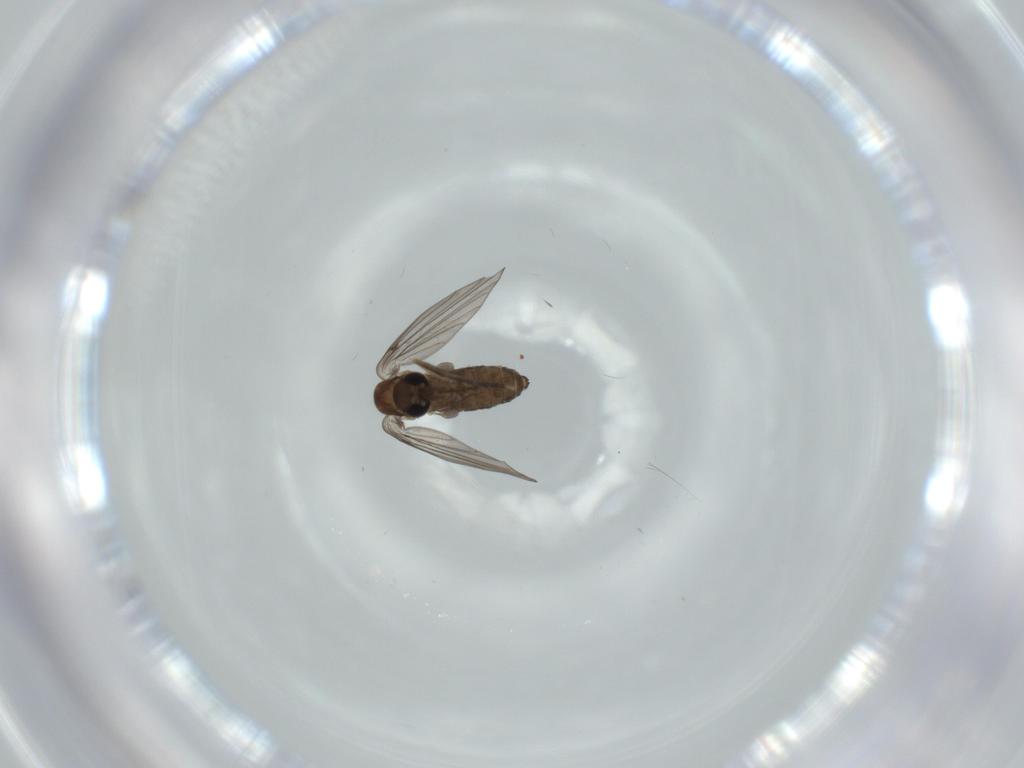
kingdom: Animalia
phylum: Arthropoda
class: Insecta
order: Diptera
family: Psychodidae
